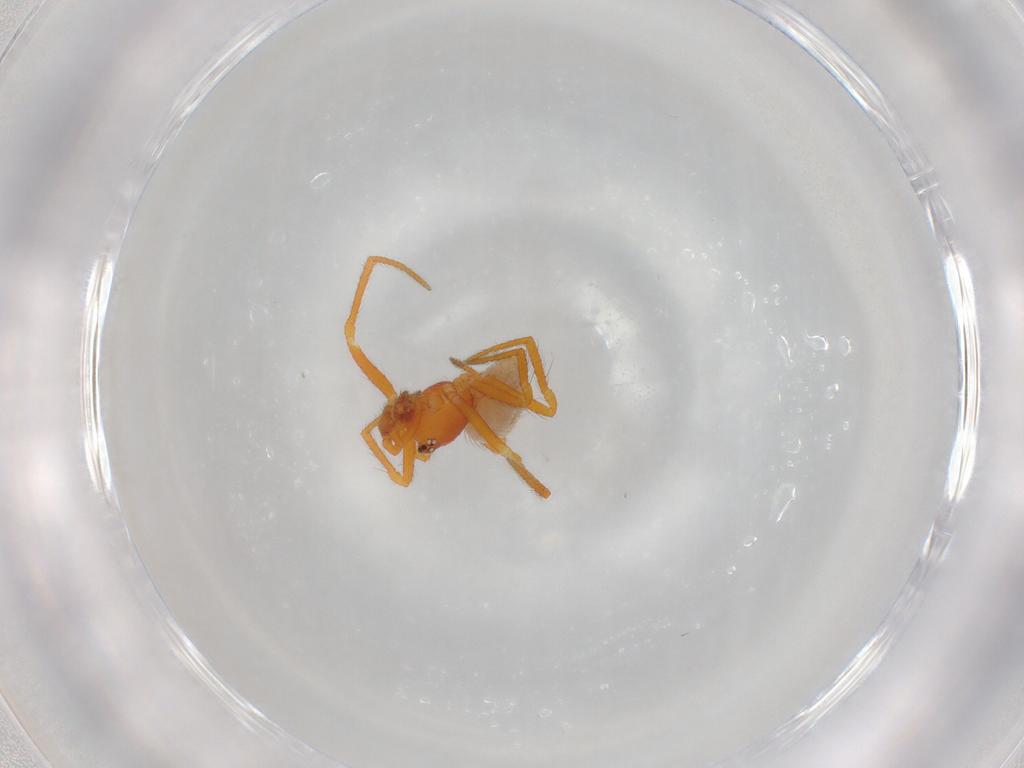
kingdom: Animalia
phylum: Arthropoda
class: Arachnida
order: Araneae
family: Theridiidae
